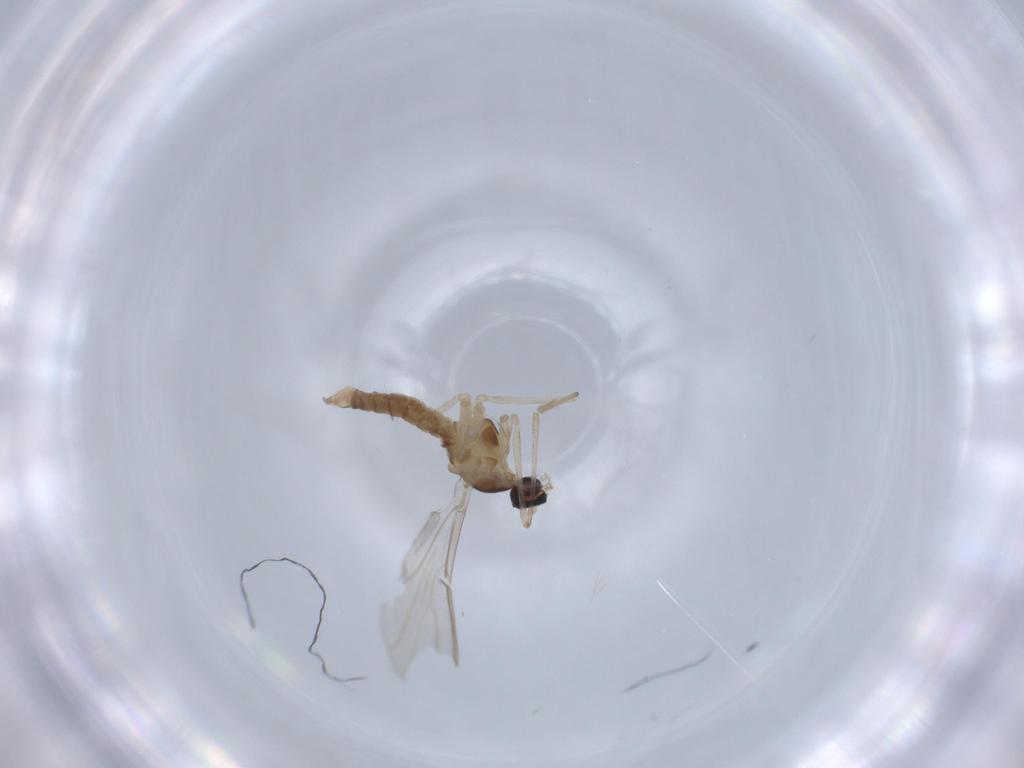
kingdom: Animalia
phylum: Arthropoda
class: Insecta
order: Diptera
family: Cecidomyiidae
